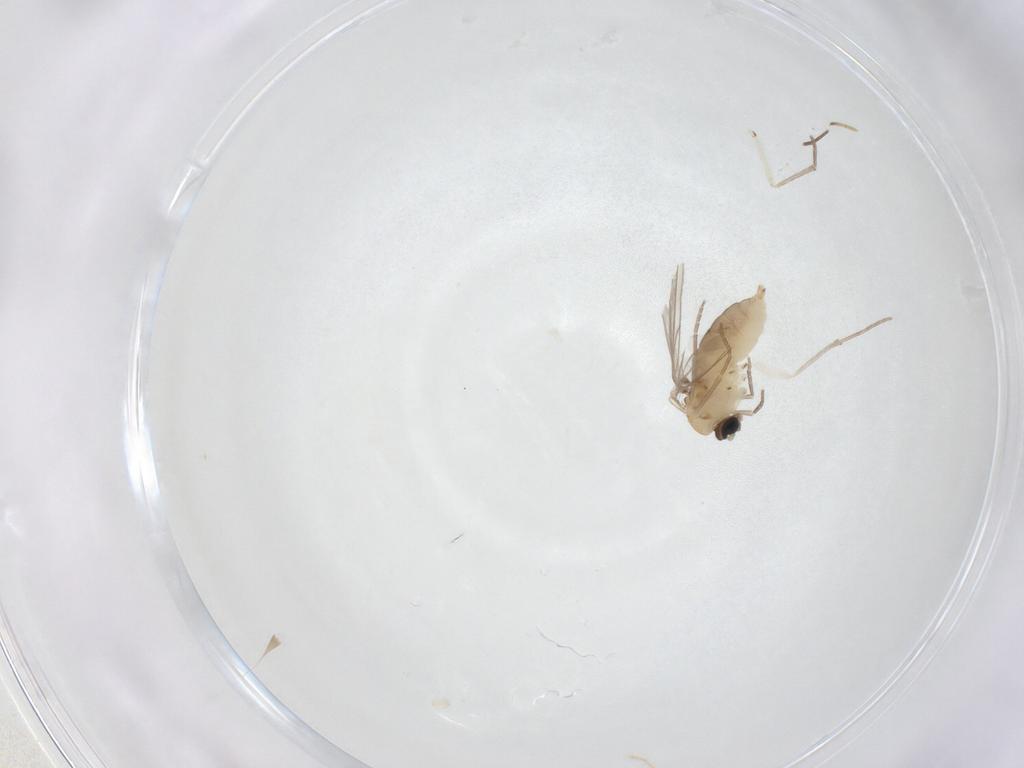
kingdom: Animalia
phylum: Arthropoda
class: Insecta
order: Diptera
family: Sciaridae
